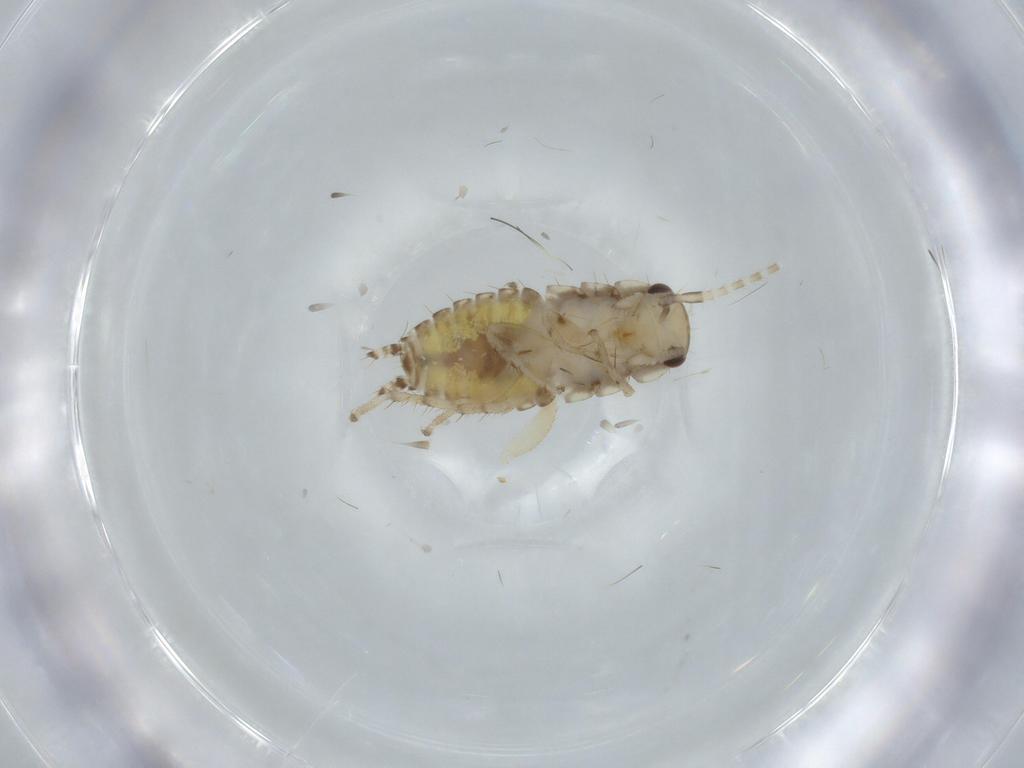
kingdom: Animalia
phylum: Arthropoda
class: Insecta
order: Blattodea
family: Ectobiidae
